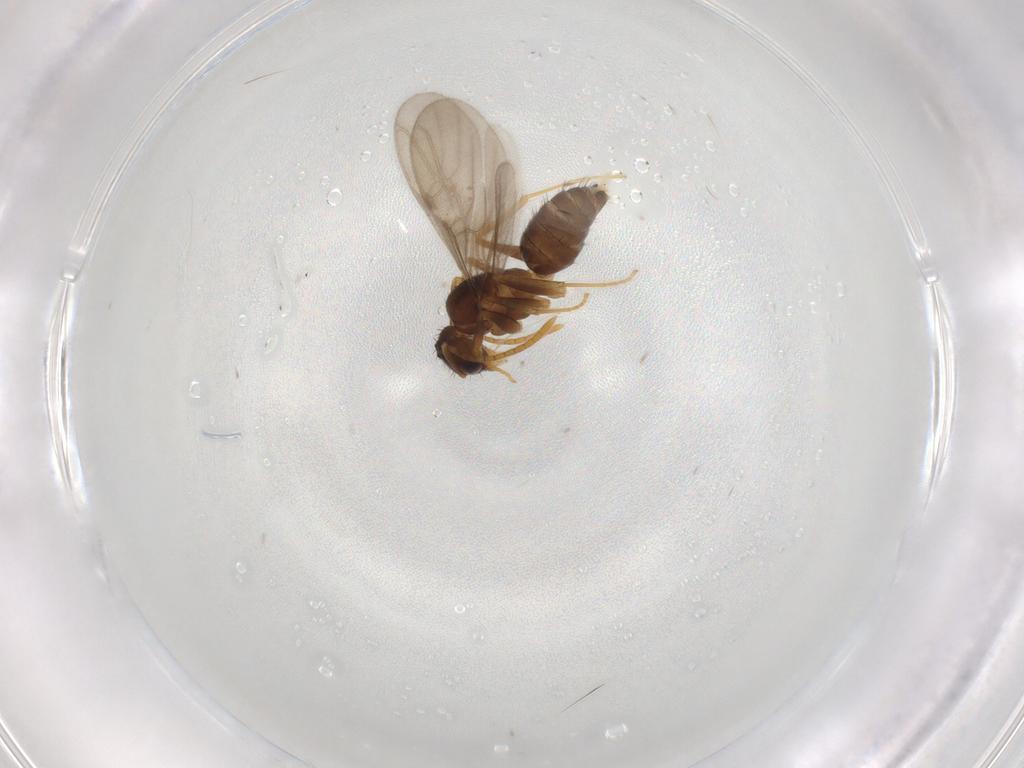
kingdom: Animalia
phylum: Arthropoda
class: Insecta
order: Hymenoptera
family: Formicidae
